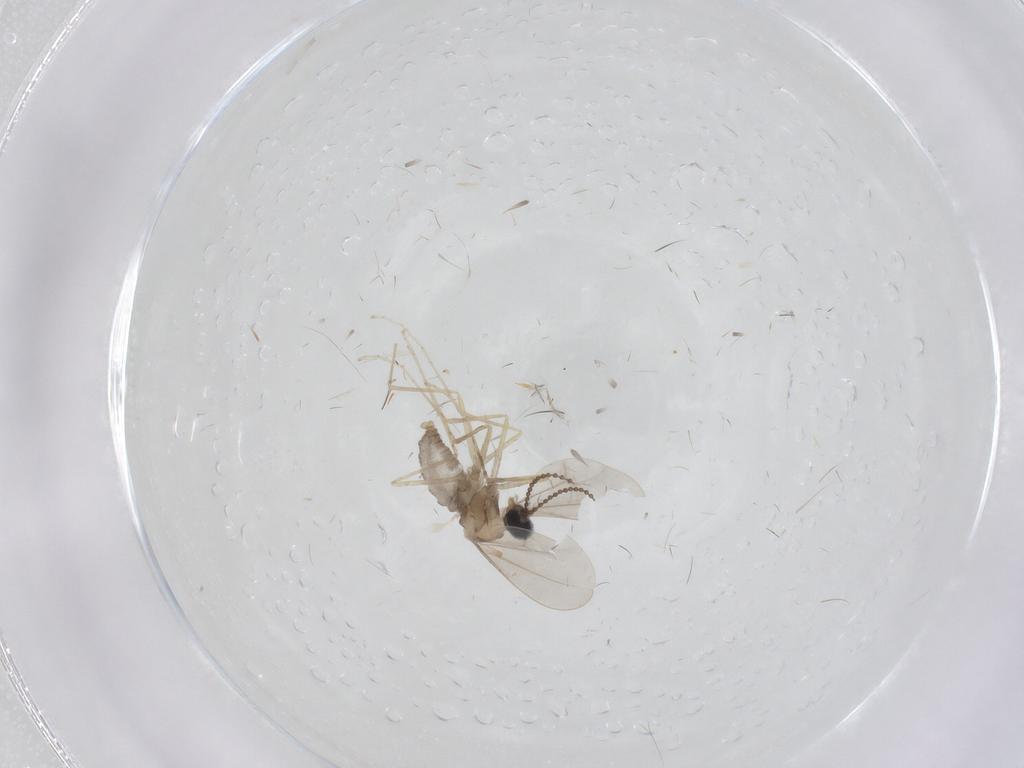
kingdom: Animalia
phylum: Arthropoda
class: Insecta
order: Diptera
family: Cecidomyiidae
